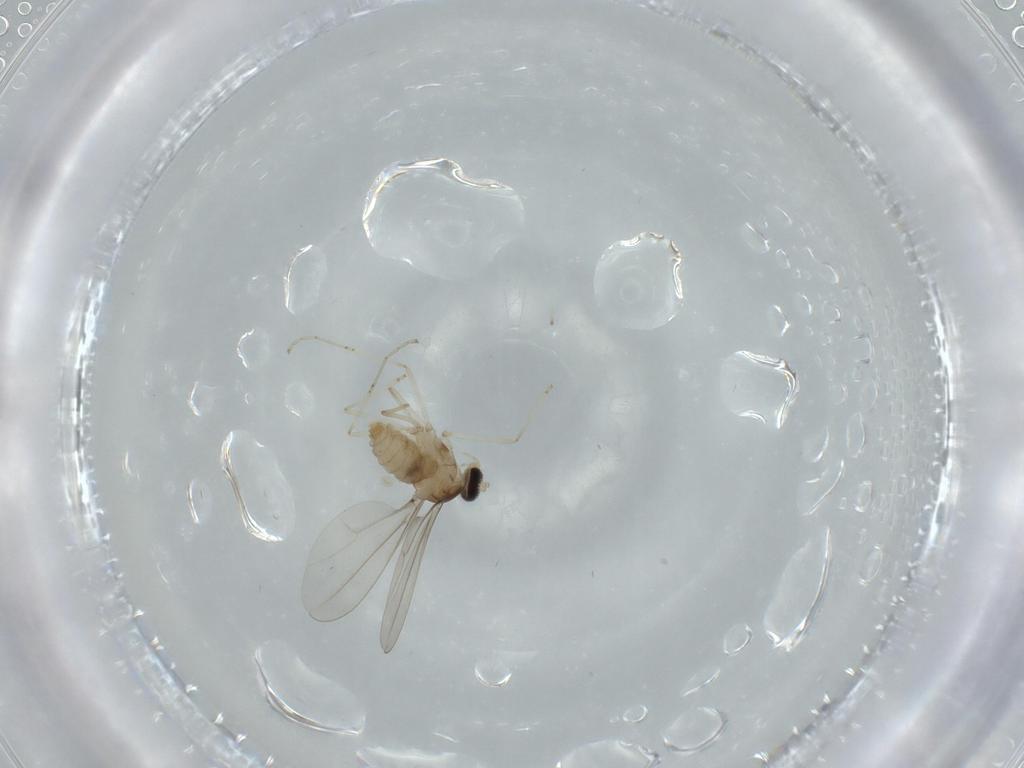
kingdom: Animalia
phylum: Arthropoda
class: Insecta
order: Diptera
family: Cecidomyiidae
